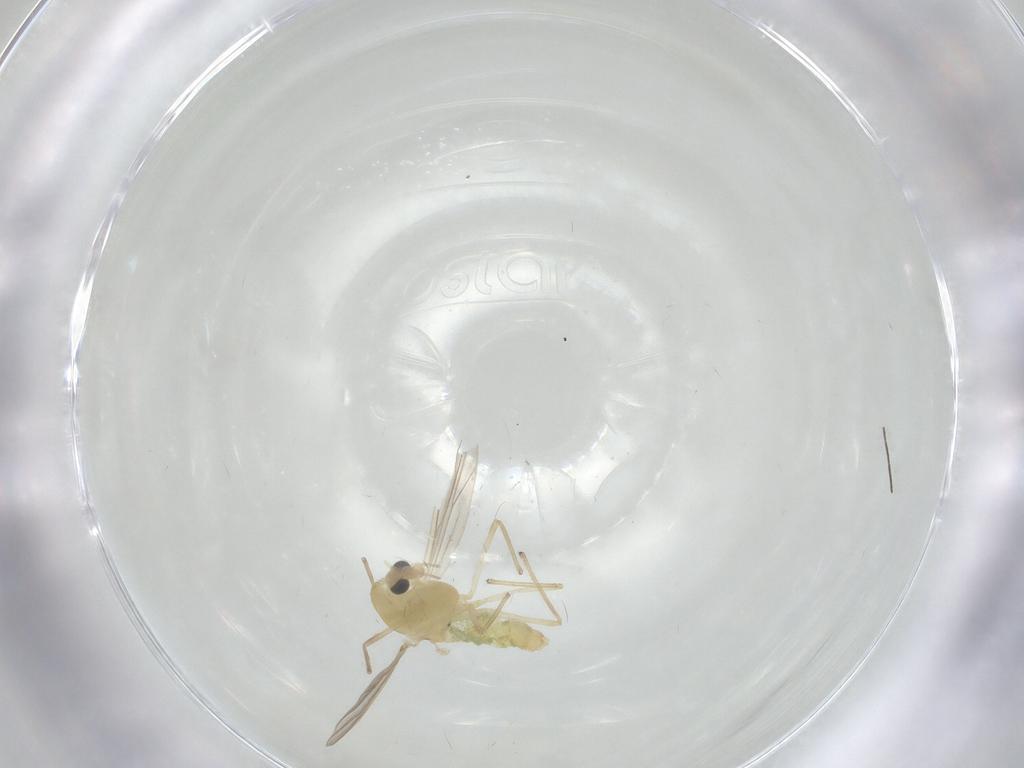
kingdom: Animalia
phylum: Arthropoda
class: Insecta
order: Diptera
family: Chironomidae
